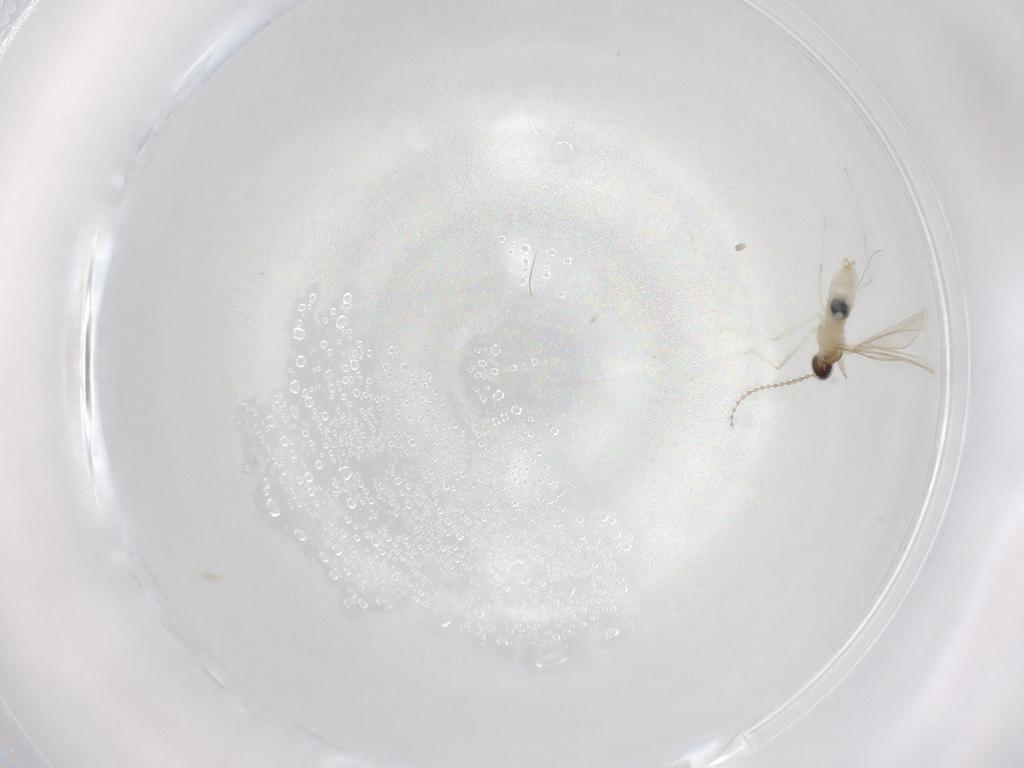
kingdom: Animalia
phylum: Arthropoda
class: Insecta
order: Diptera
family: Cecidomyiidae
